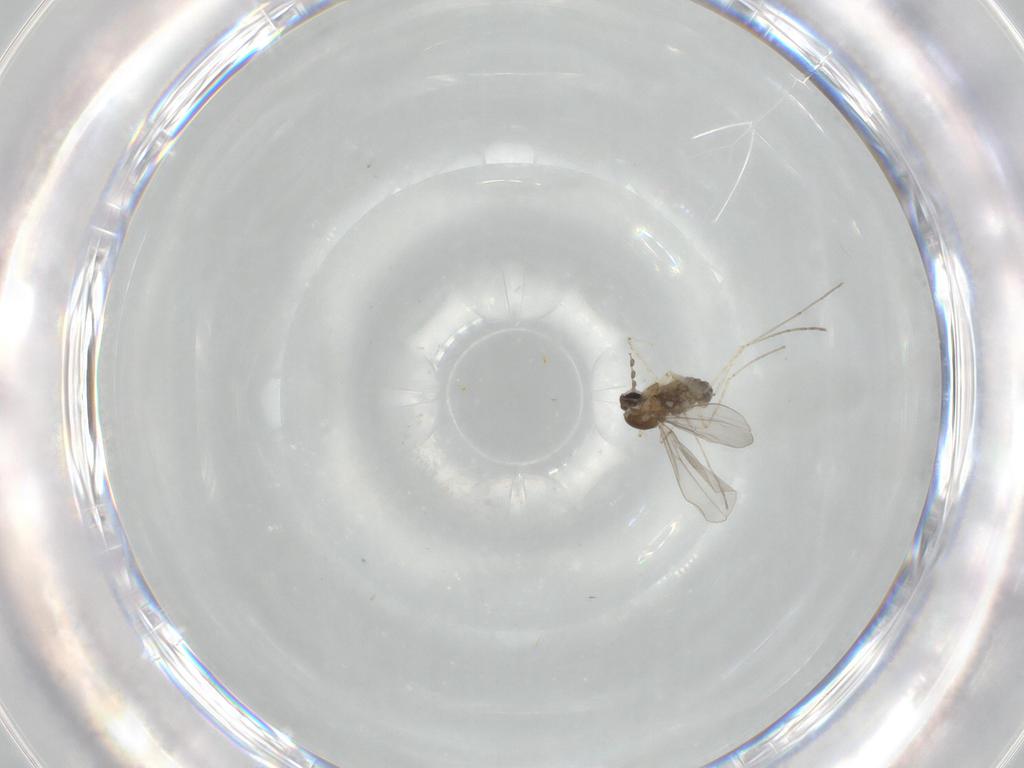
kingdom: Animalia
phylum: Arthropoda
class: Insecta
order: Diptera
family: Cecidomyiidae
